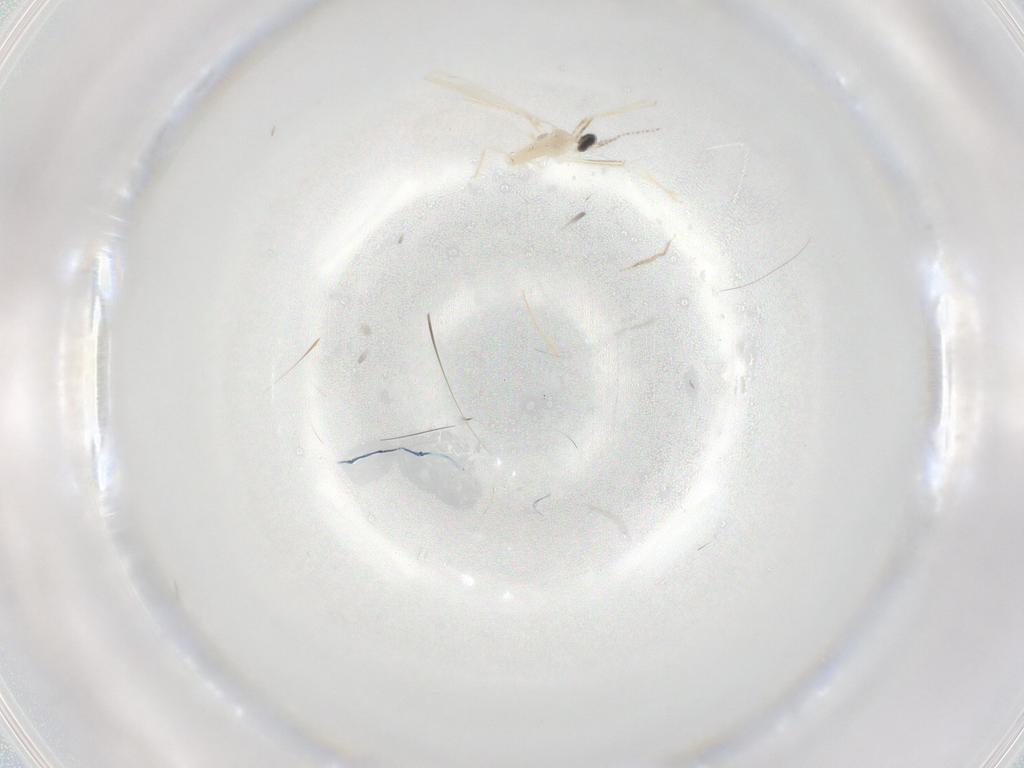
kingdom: Animalia
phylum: Arthropoda
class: Insecta
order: Diptera
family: Cecidomyiidae
